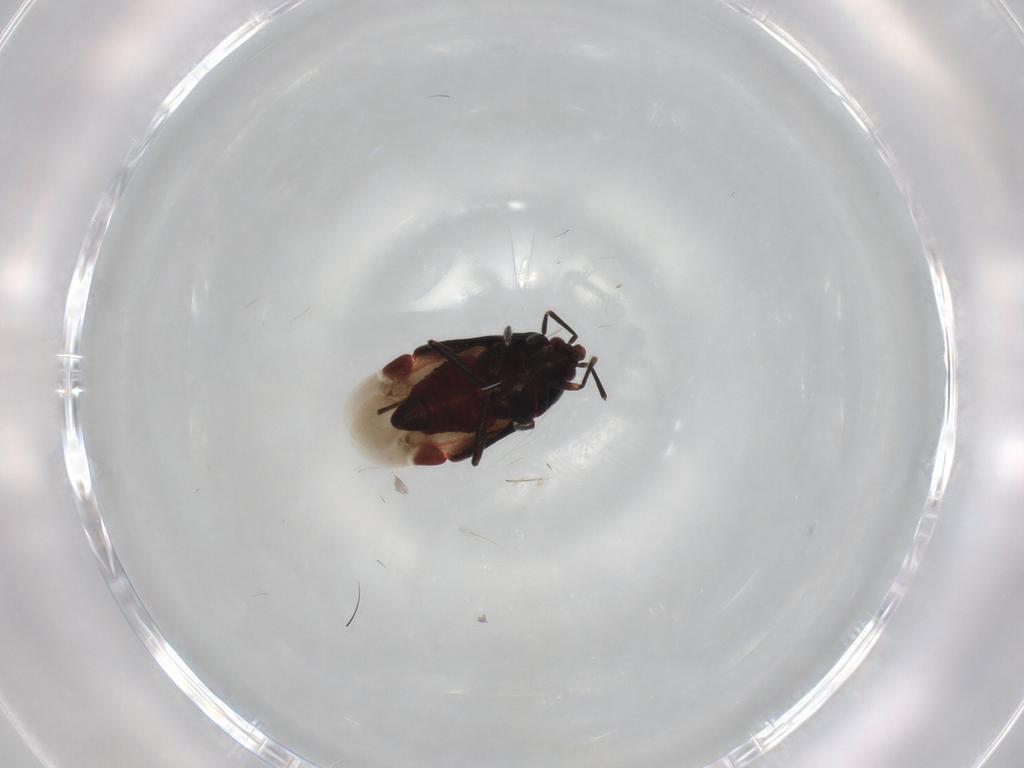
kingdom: Animalia
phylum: Arthropoda
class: Insecta
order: Hemiptera
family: Miridae
